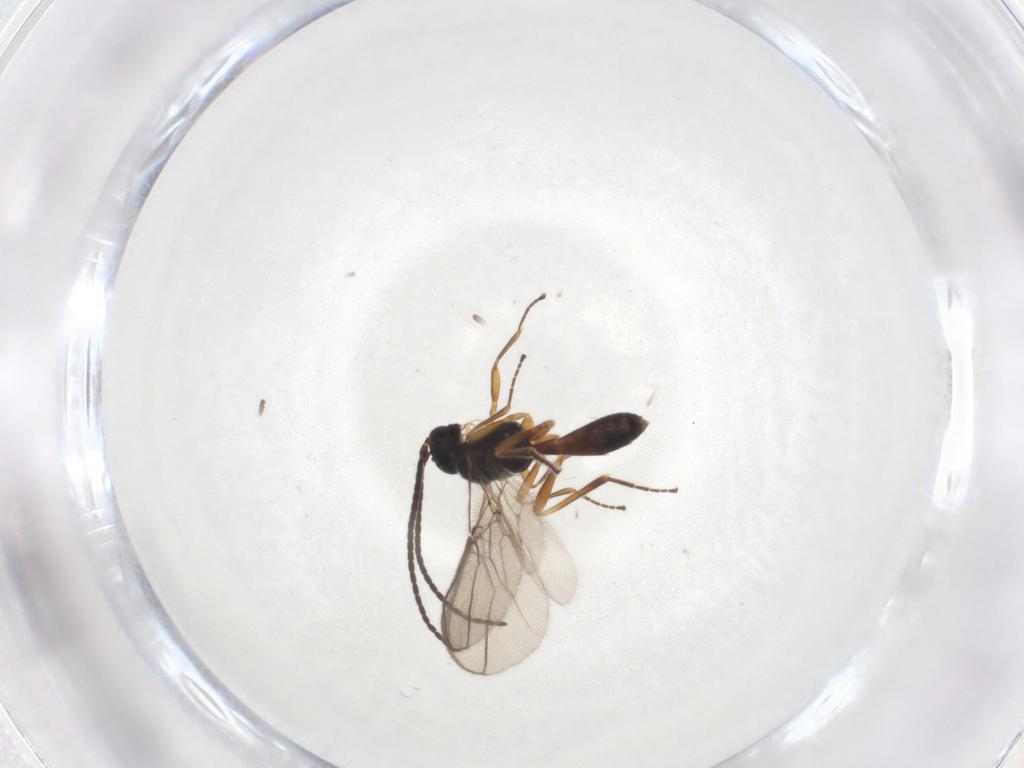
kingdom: Animalia
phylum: Arthropoda
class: Insecta
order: Hymenoptera
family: Braconidae
